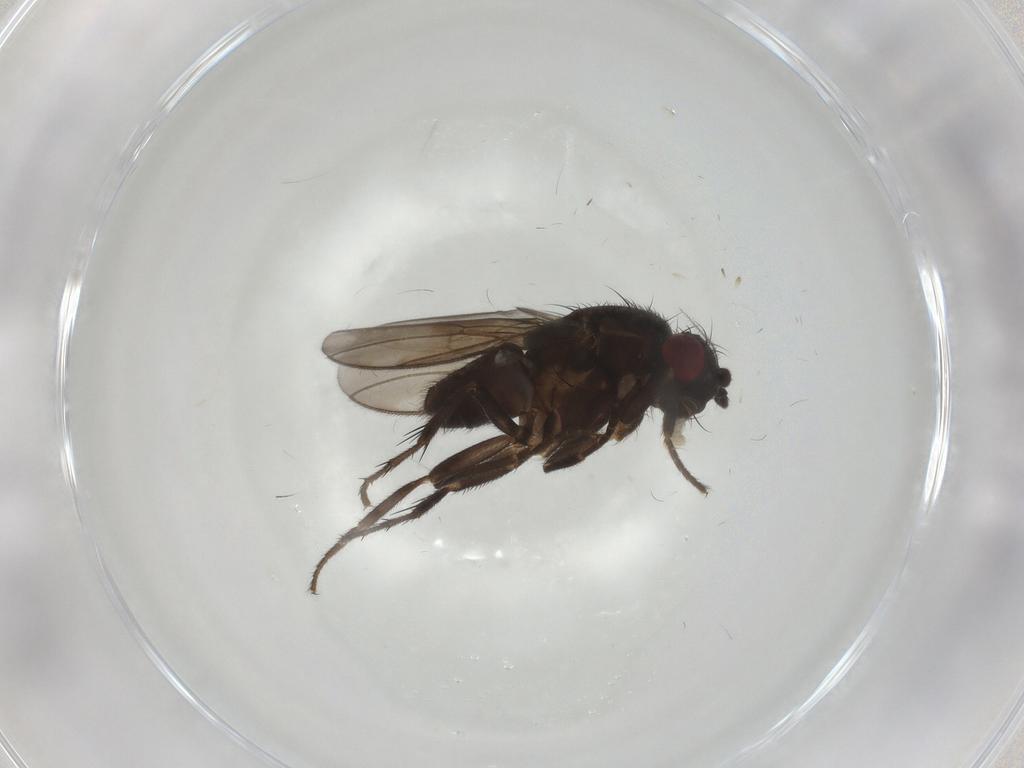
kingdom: Animalia
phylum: Arthropoda
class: Insecta
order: Diptera
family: Sphaeroceridae
